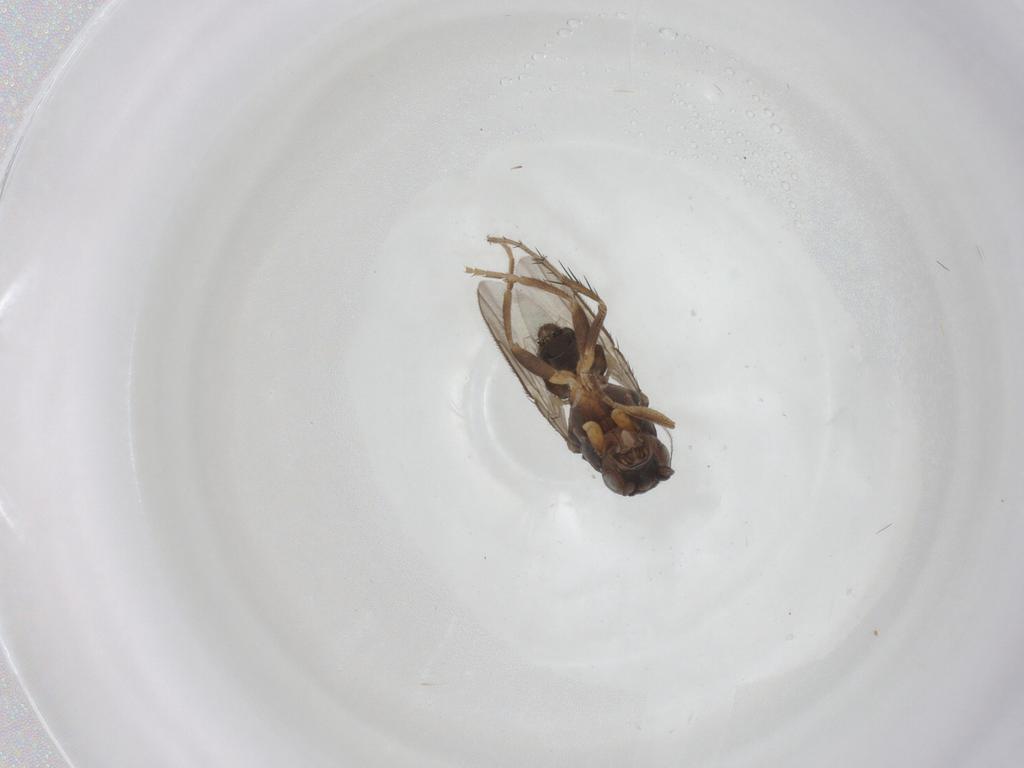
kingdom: Animalia
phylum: Arthropoda
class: Insecta
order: Diptera
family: Sphaeroceridae
